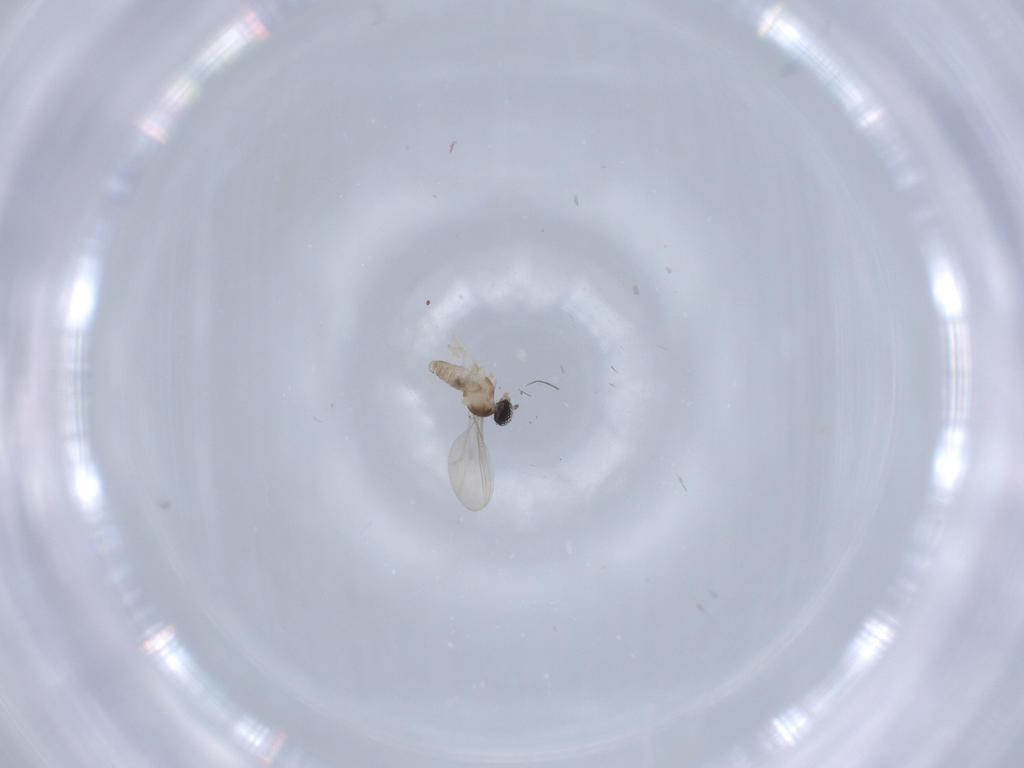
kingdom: Animalia
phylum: Arthropoda
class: Insecta
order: Diptera
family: Cecidomyiidae
